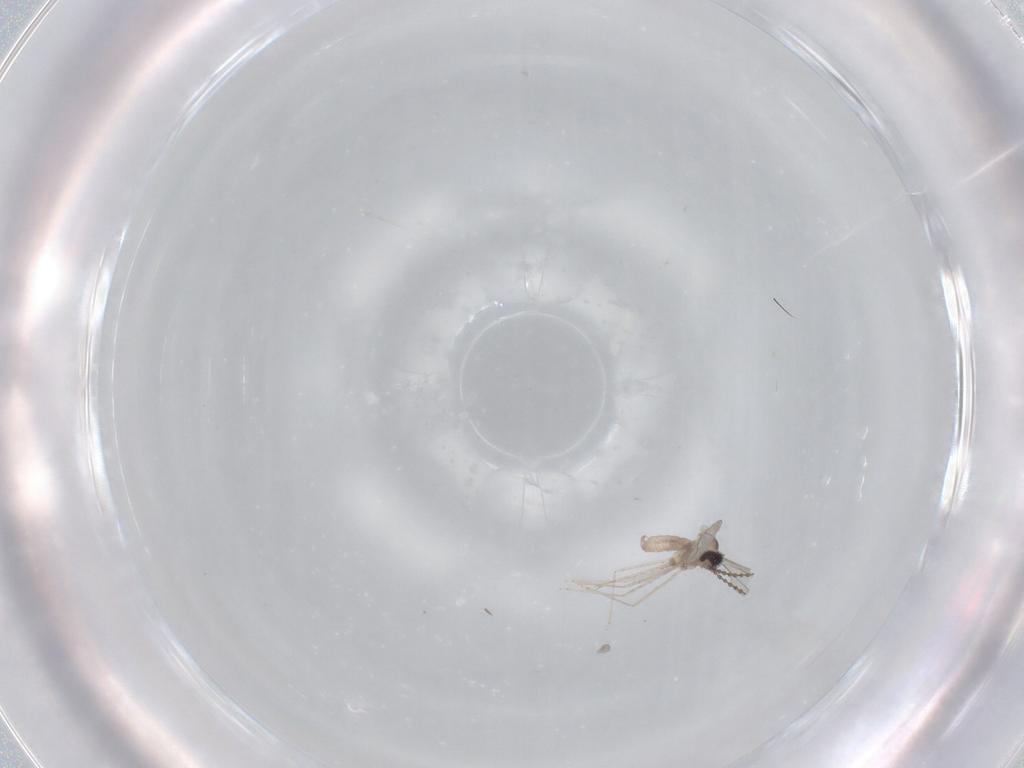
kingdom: Animalia
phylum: Arthropoda
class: Insecta
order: Diptera
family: Cecidomyiidae
